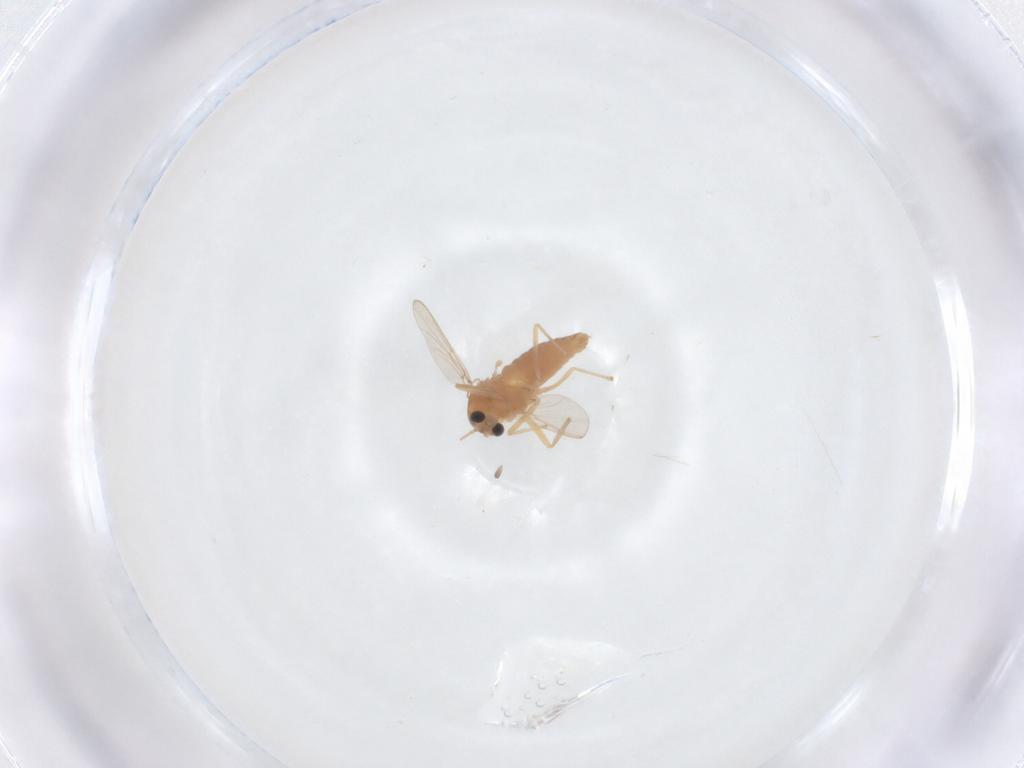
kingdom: Animalia
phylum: Arthropoda
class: Insecta
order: Diptera
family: Chironomidae
